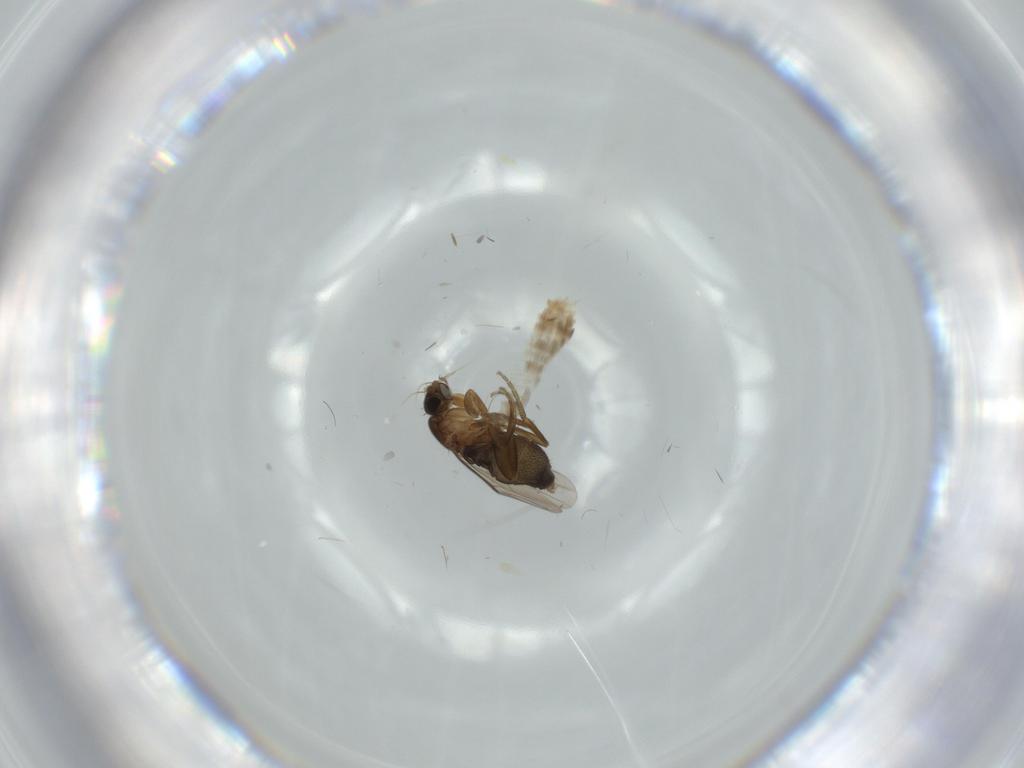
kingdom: Animalia
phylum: Arthropoda
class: Insecta
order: Diptera
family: Phoridae
